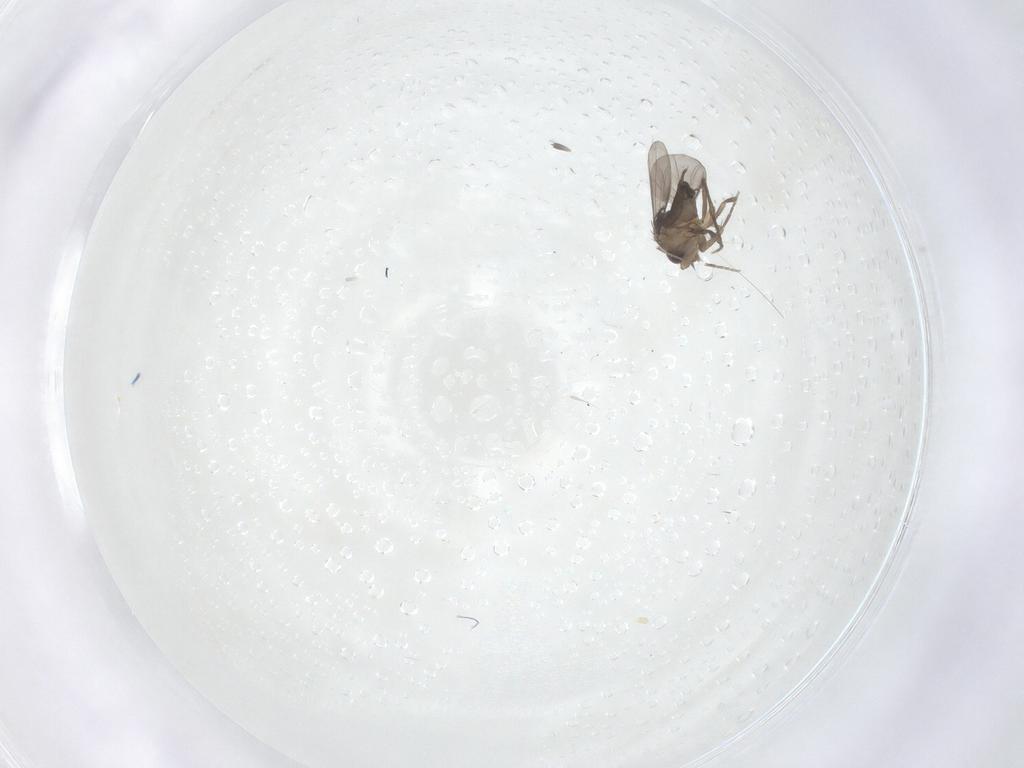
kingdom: Animalia
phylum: Arthropoda
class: Insecta
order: Diptera
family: Phoridae
